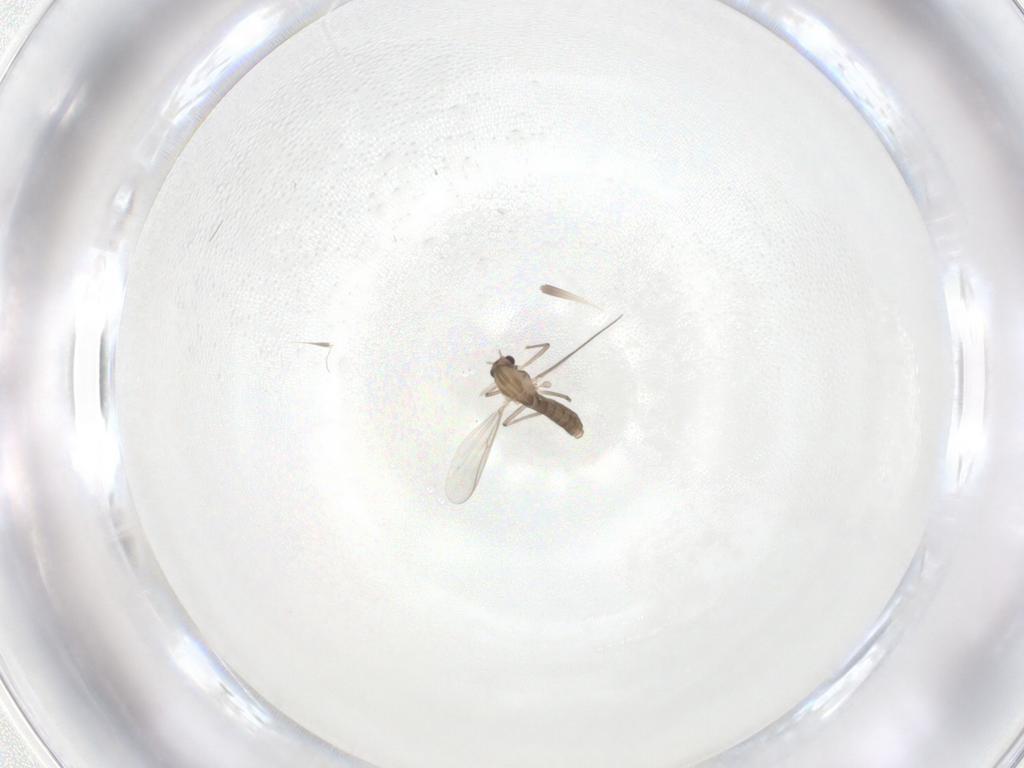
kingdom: Animalia
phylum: Arthropoda
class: Insecta
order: Diptera
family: Chironomidae
